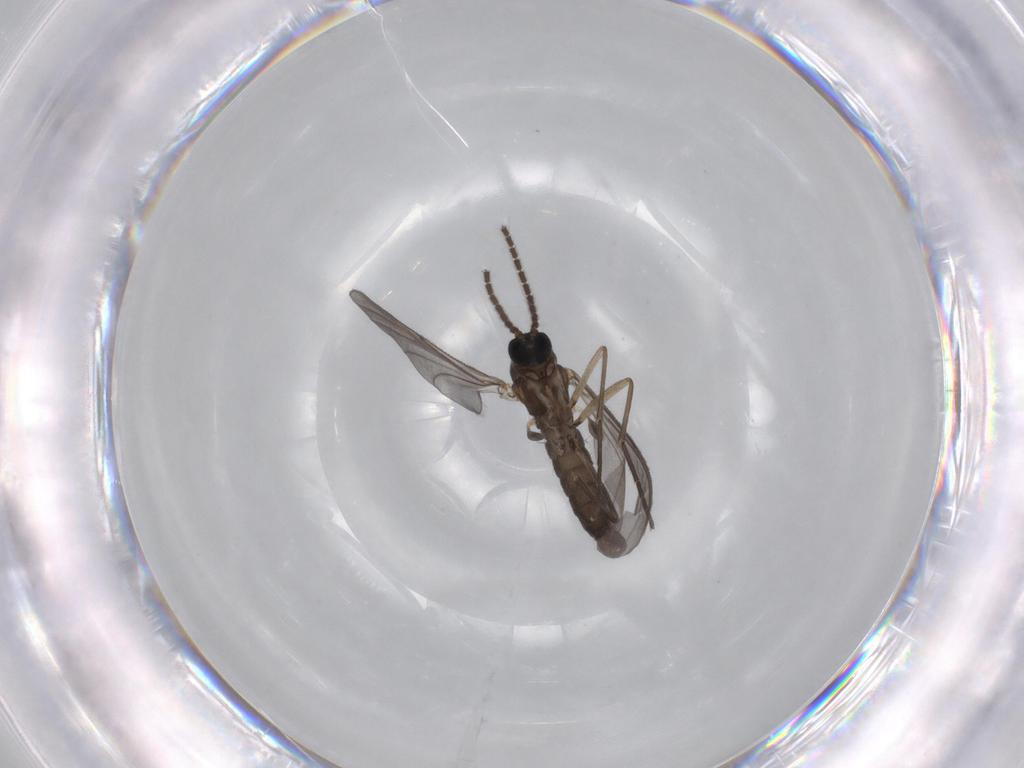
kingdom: Animalia
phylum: Arthropoda
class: Insecta
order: Diptera
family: Sciaridae
